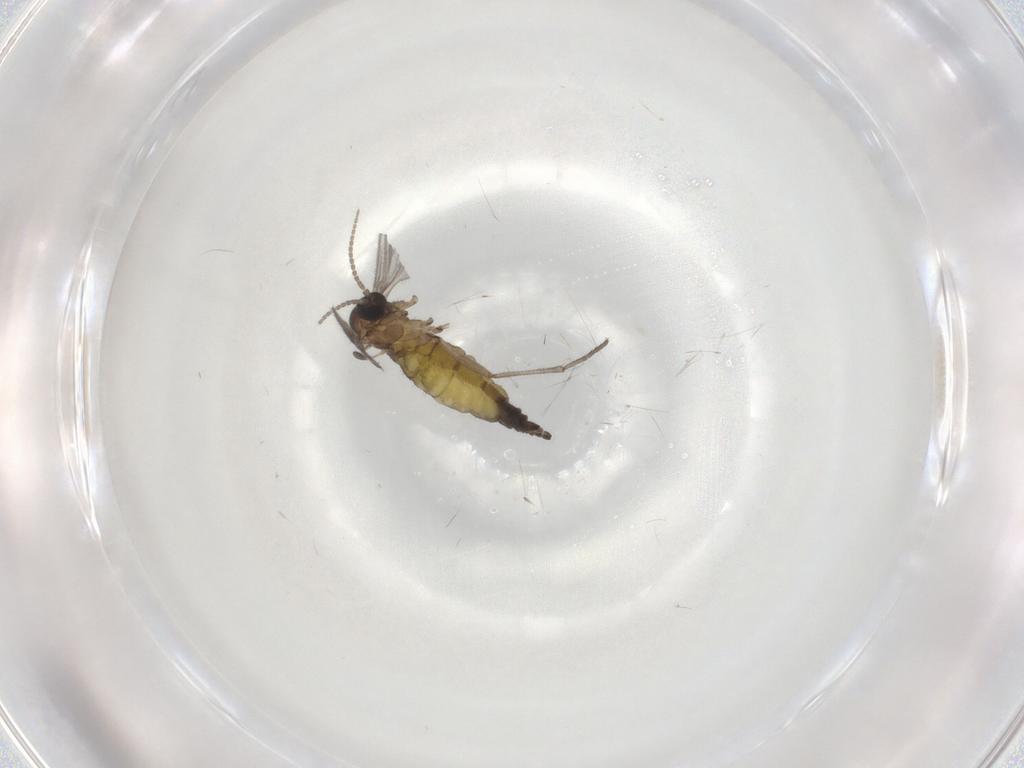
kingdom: Animalia
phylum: Arthropoda
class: Insecta
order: Diptera
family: Sciaridae
